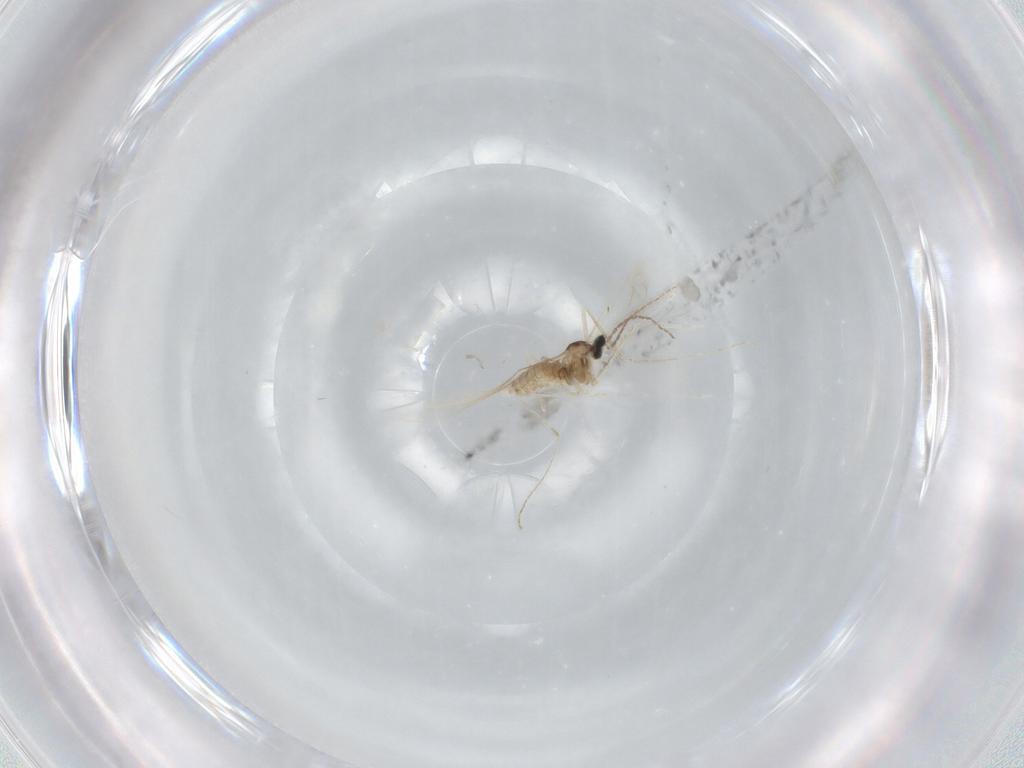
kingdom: Animalia
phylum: Arthropoda
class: Insecta
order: Diptera
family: Cecidomyiidae
